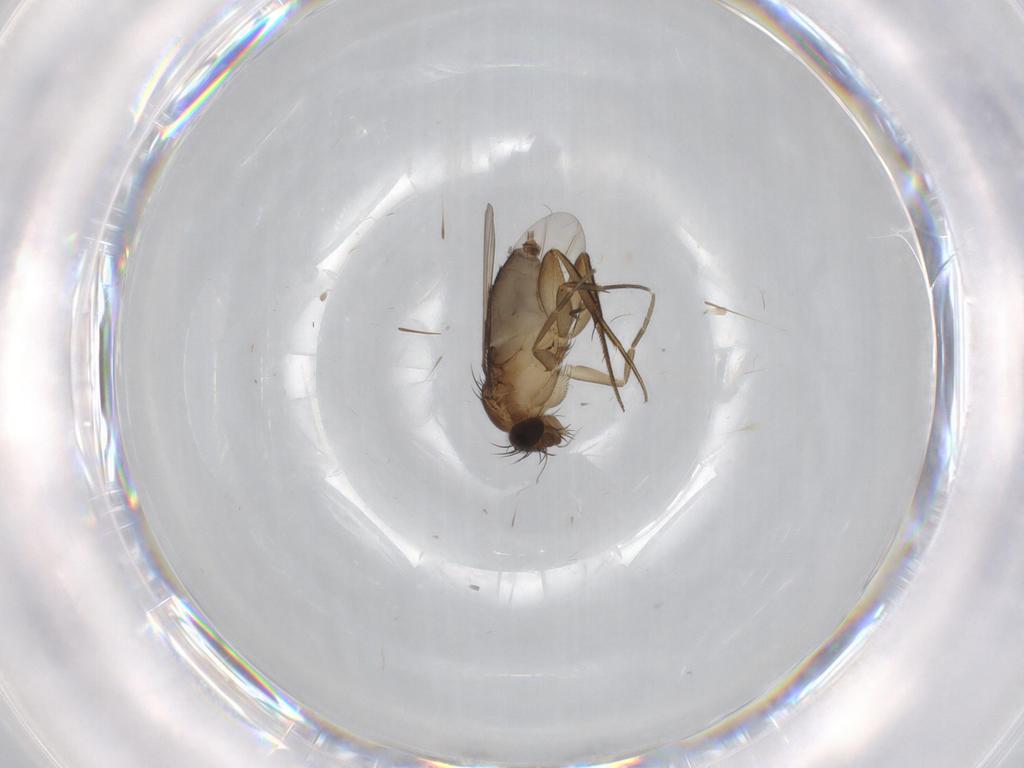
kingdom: Animalia
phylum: Arthropoda
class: Insecta
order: Diptera
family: Phoridae
